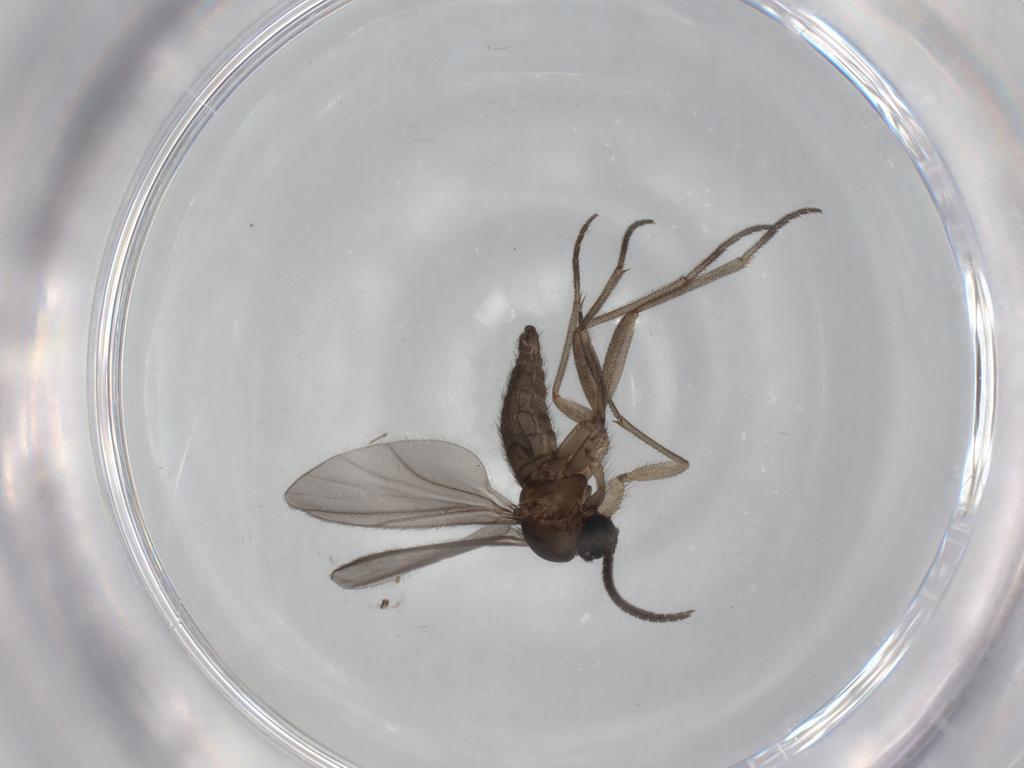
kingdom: Animalia
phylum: Arthropoda
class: Insecta
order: Diptera
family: Sciaridae
